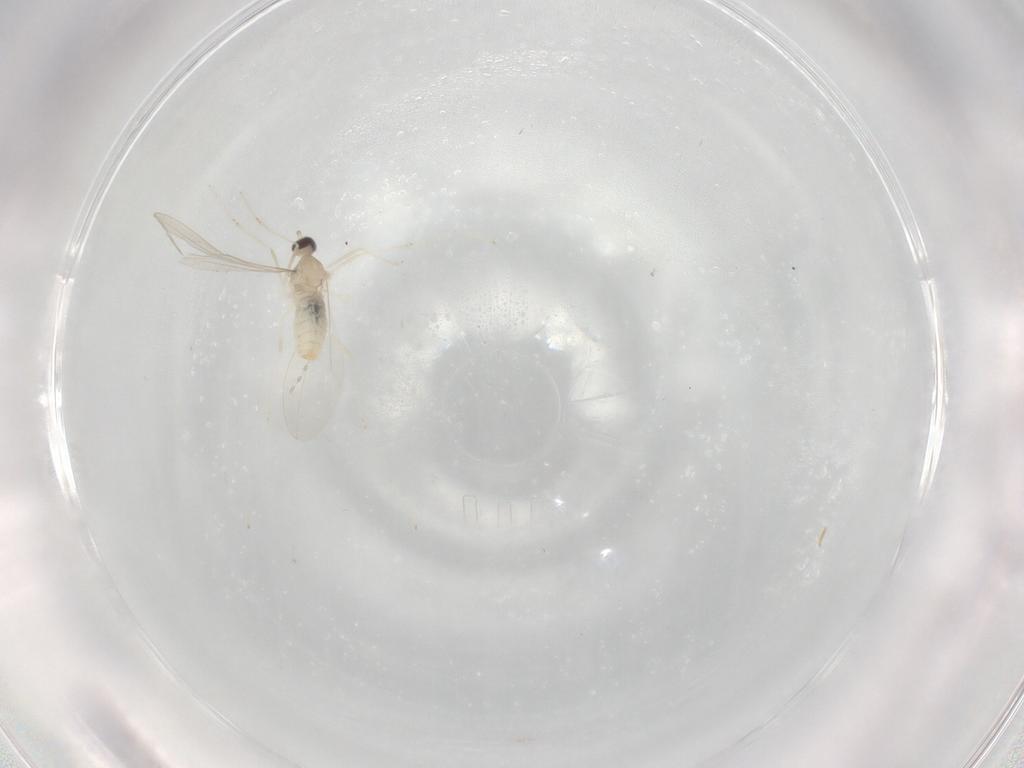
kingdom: Animalia
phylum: Arthropoda
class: Insecta
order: Diptera
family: Cecidomyiidae
